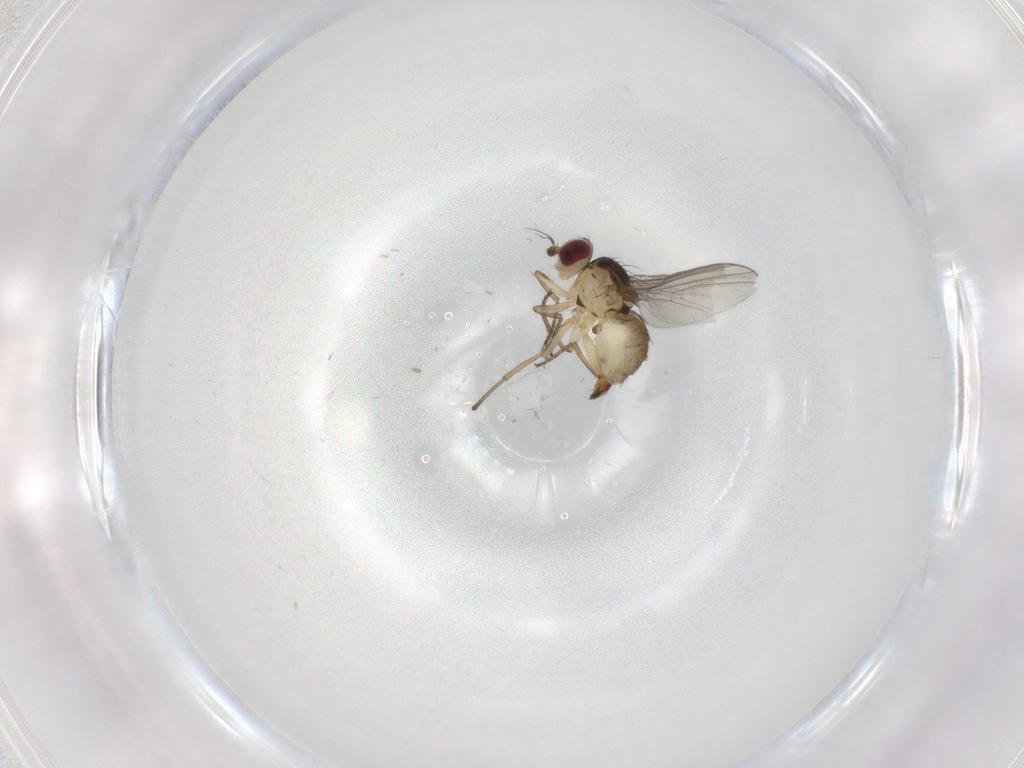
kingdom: Animalia
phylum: Arthropoda
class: Insecta
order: Diptera
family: Agromyzidae
